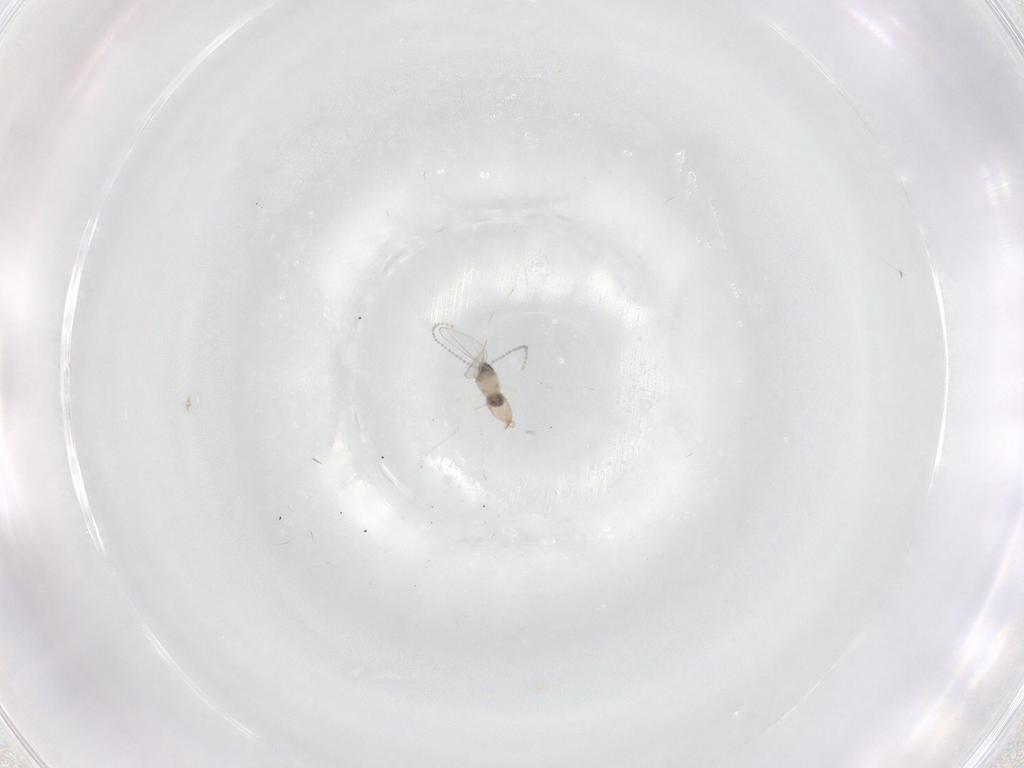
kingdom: Animalia
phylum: Arthropoda
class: Insecta
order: Diptera
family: Cecidomyiidae
